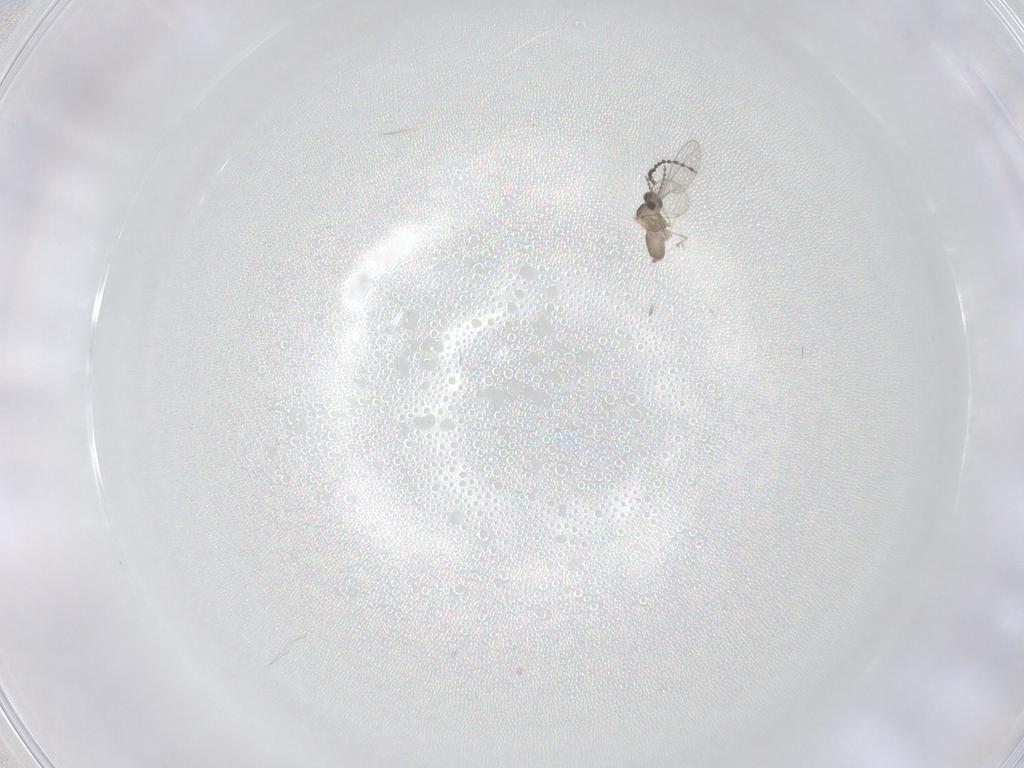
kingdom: Animalia
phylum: Arthropoda
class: Insecta
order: Diptera
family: Cecidomyiidae
